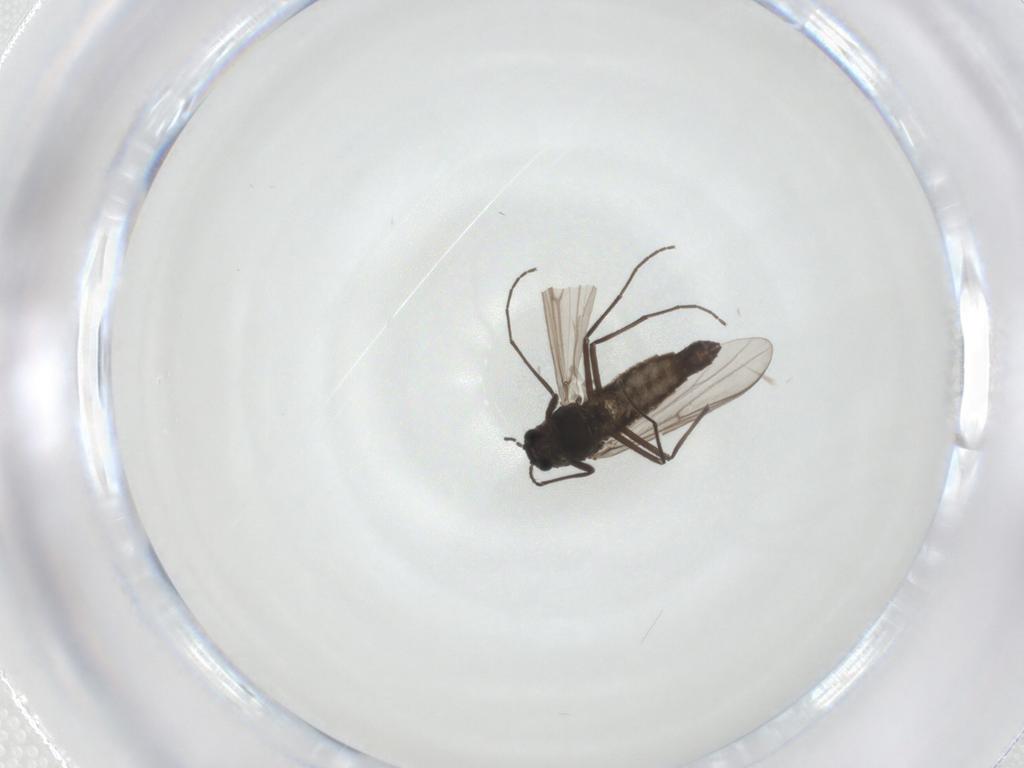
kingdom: Animalia
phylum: Arthropoda
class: Insecta
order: Diptera
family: Chironomidae
